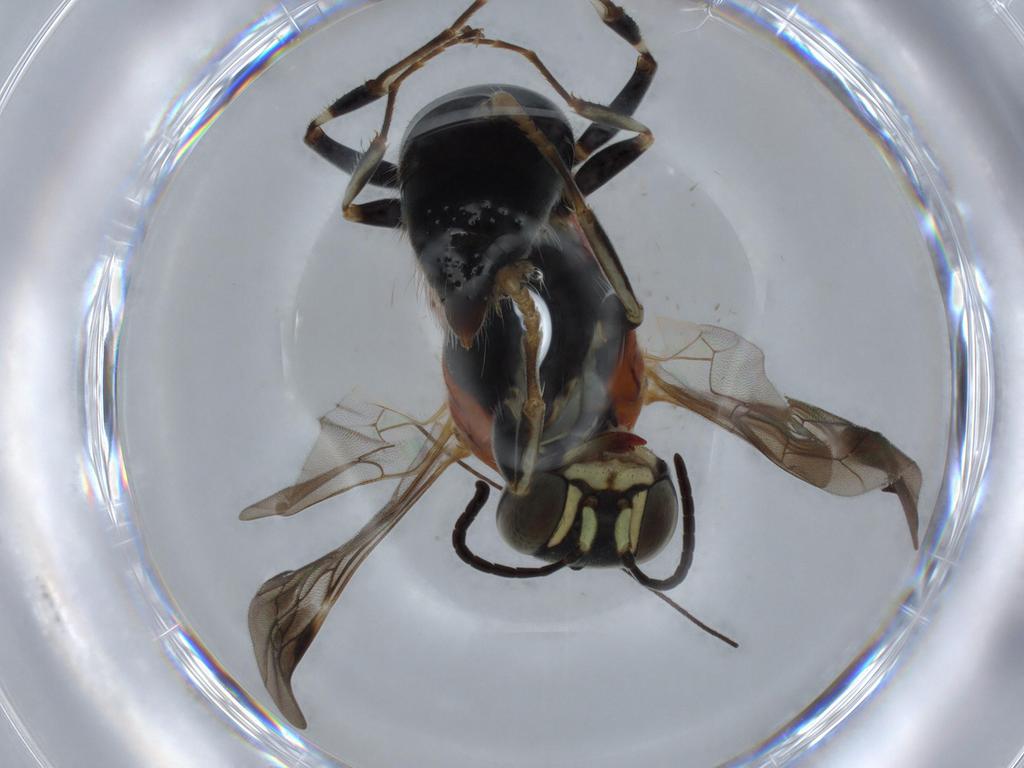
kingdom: Animalia
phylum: Arthropoda
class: Insecta
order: Hymenoptera
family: Bembicidae
